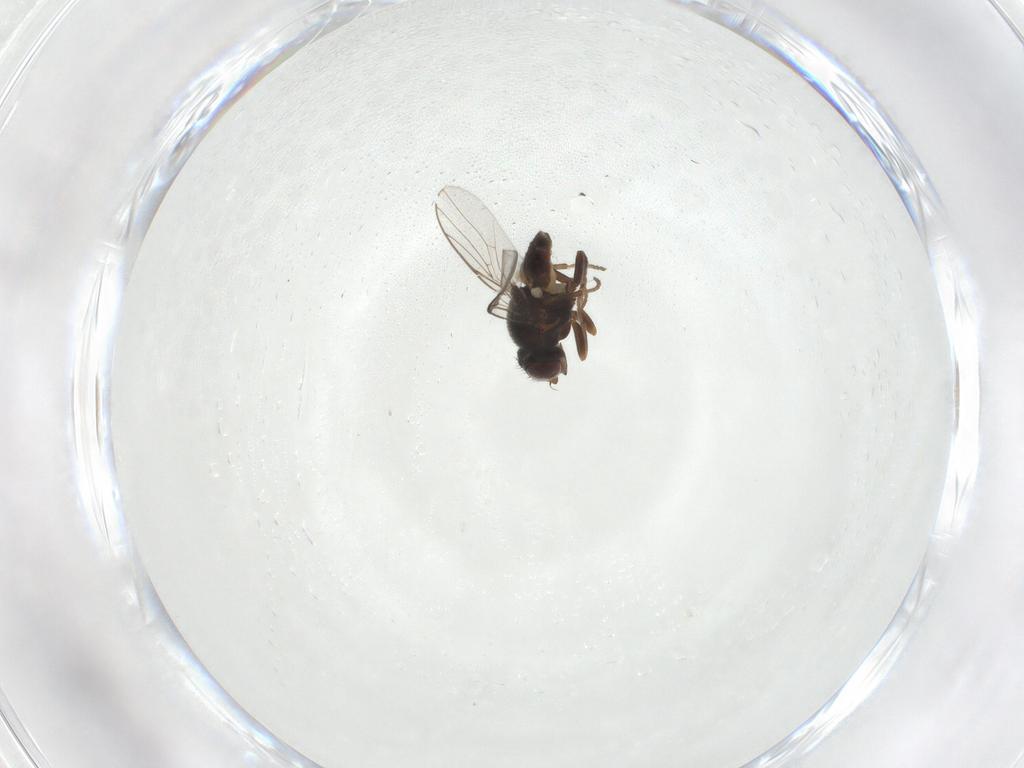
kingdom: Animalia
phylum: Arthropoda
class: Insecta
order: Diptera
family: Chloropidae
